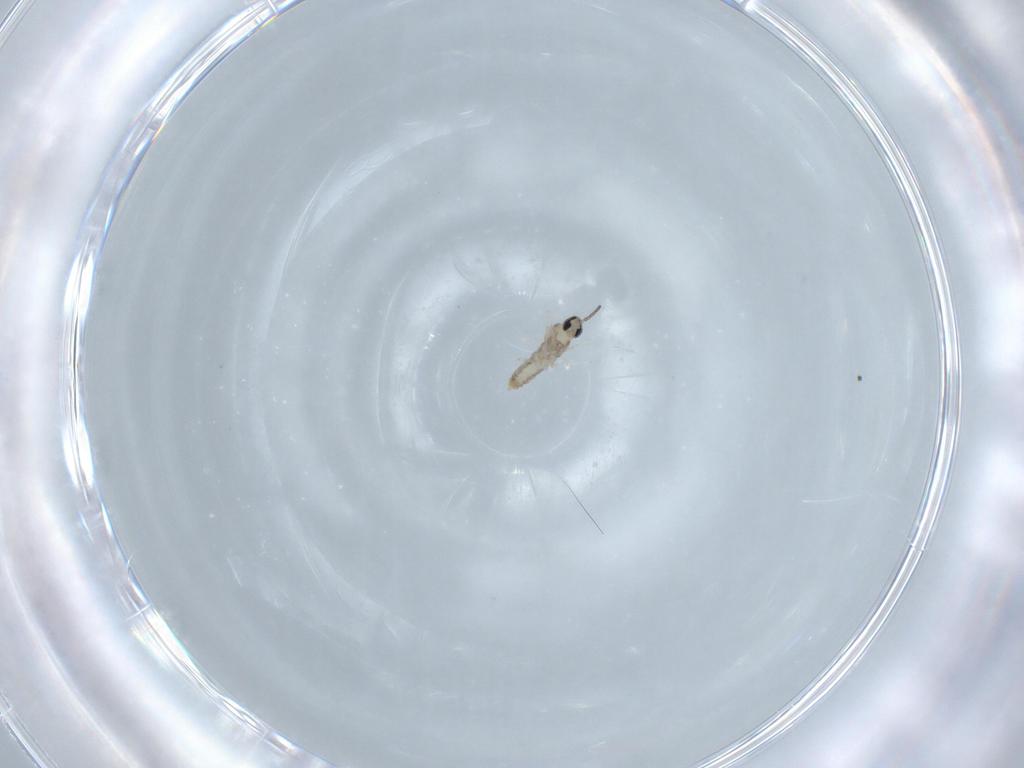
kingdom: Animalia
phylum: Arthropoda
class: Insecta
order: Diptera
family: Cecidomyiidae
